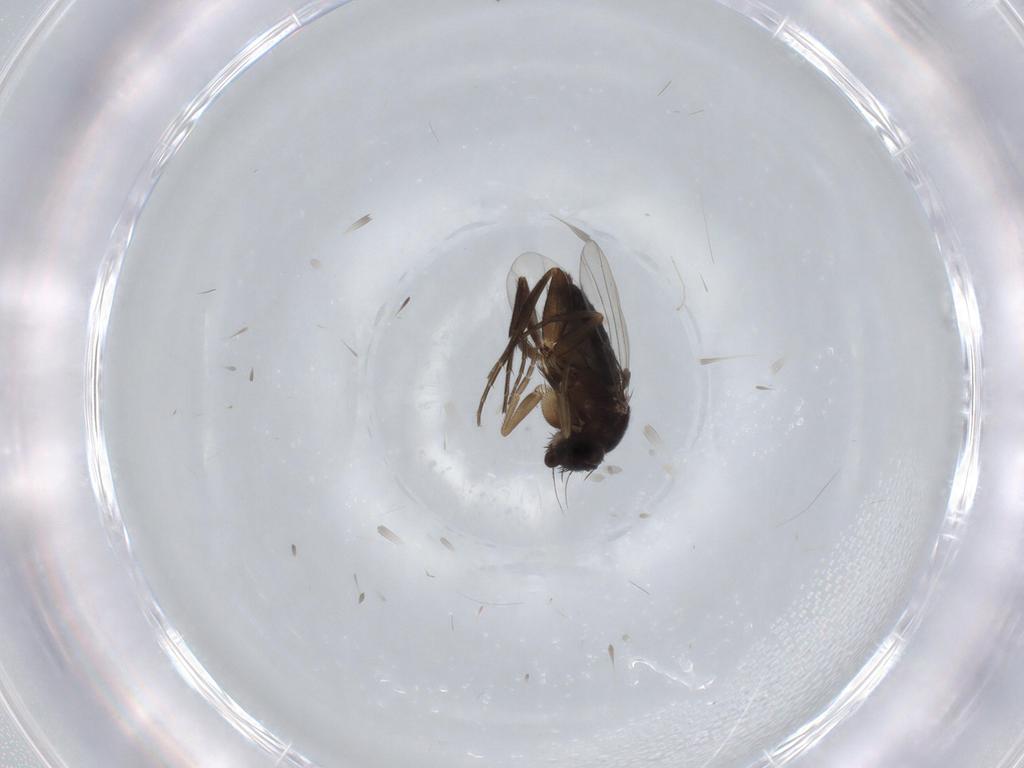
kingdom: Animalia
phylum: Arthropoda
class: Insecta
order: Diptera
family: Phoridae
